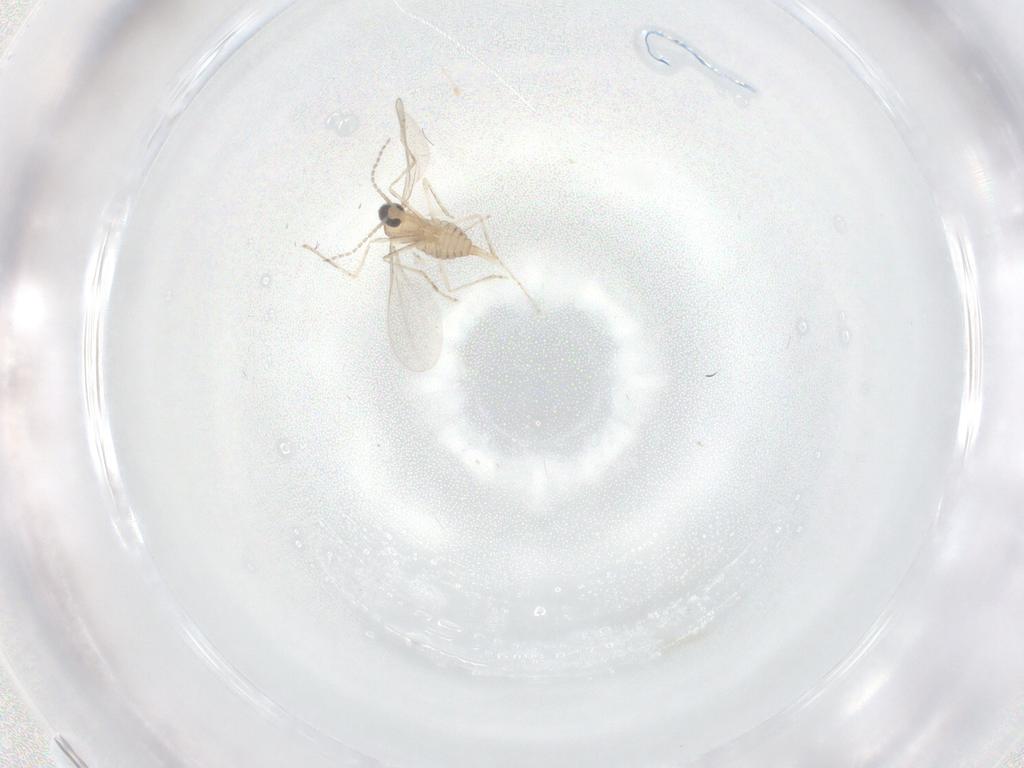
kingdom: Animalia
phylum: Arthropoda
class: Insecta
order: Diptera
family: Cecidomyiidae
